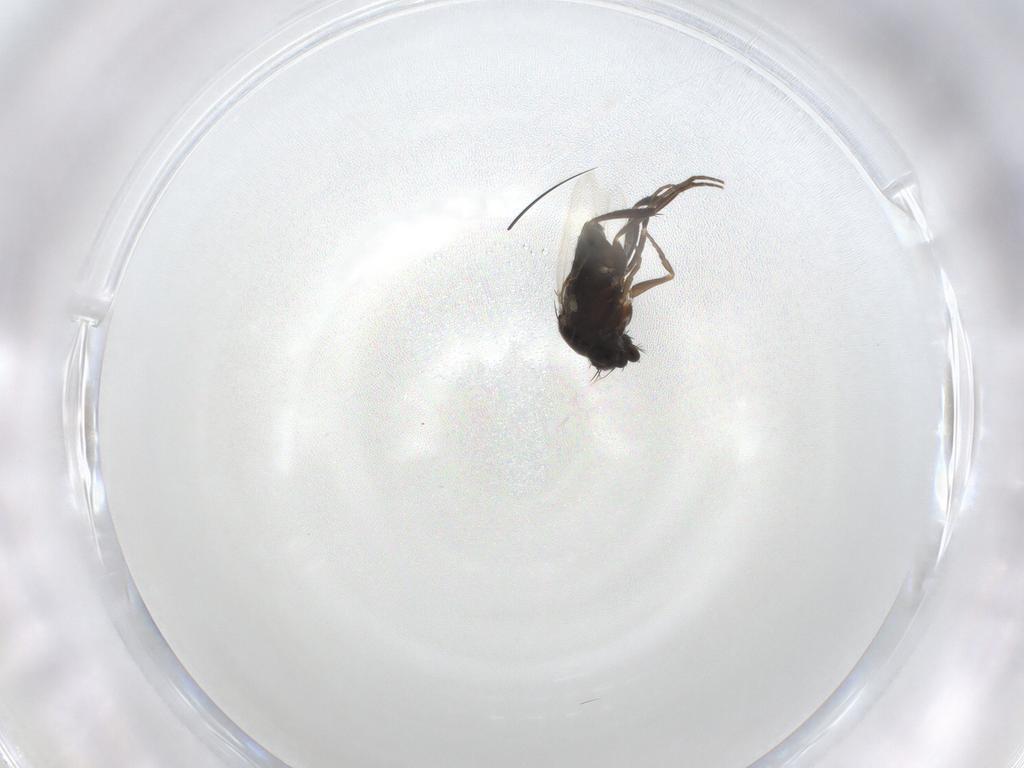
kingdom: Animalia
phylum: Arthropoda
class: Insecta
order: Diptera
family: Phoridae
